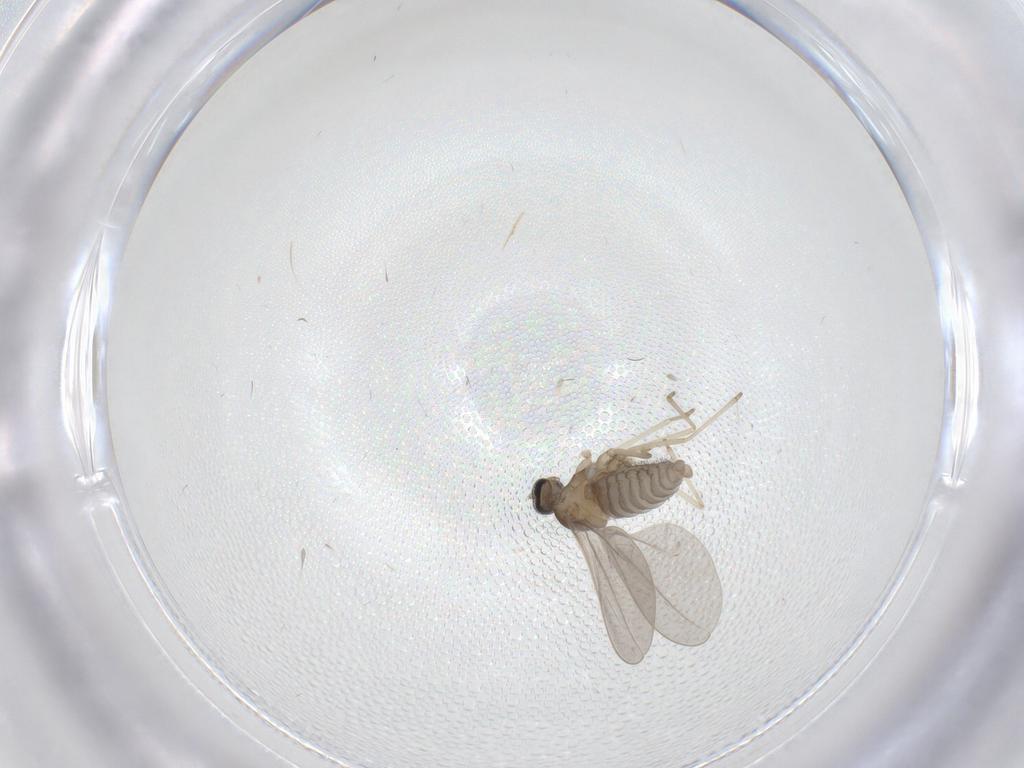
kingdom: Animalia
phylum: Arthropoda
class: Insecta
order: Diptera
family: Cecidomyiidae
